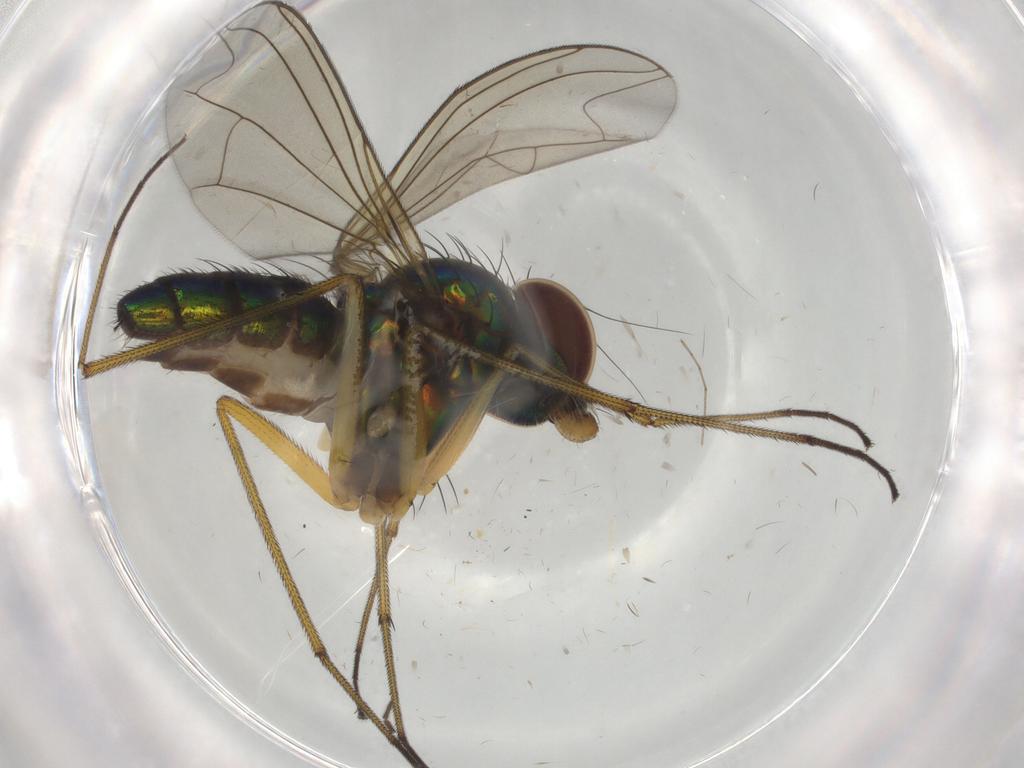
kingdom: Animalia
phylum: Arthropoda
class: Insecta
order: Diptera
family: Dolichopodidae
